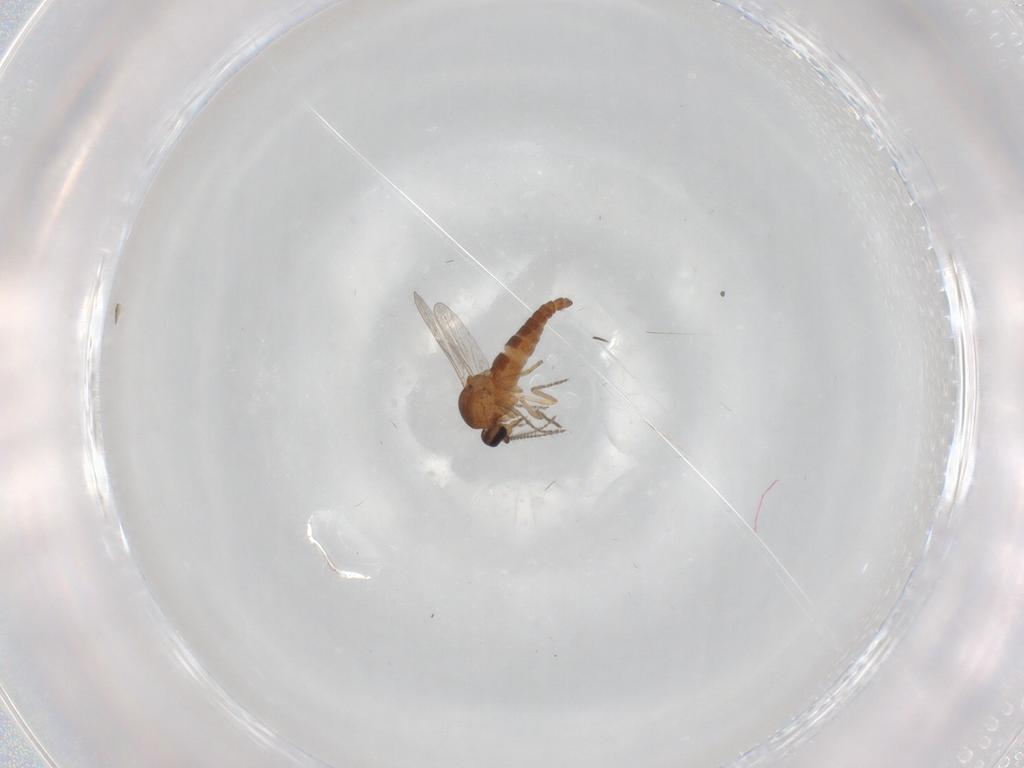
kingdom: Animalia
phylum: Arthropoda
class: Insecta
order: Diptera
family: Ceratopogonidae
